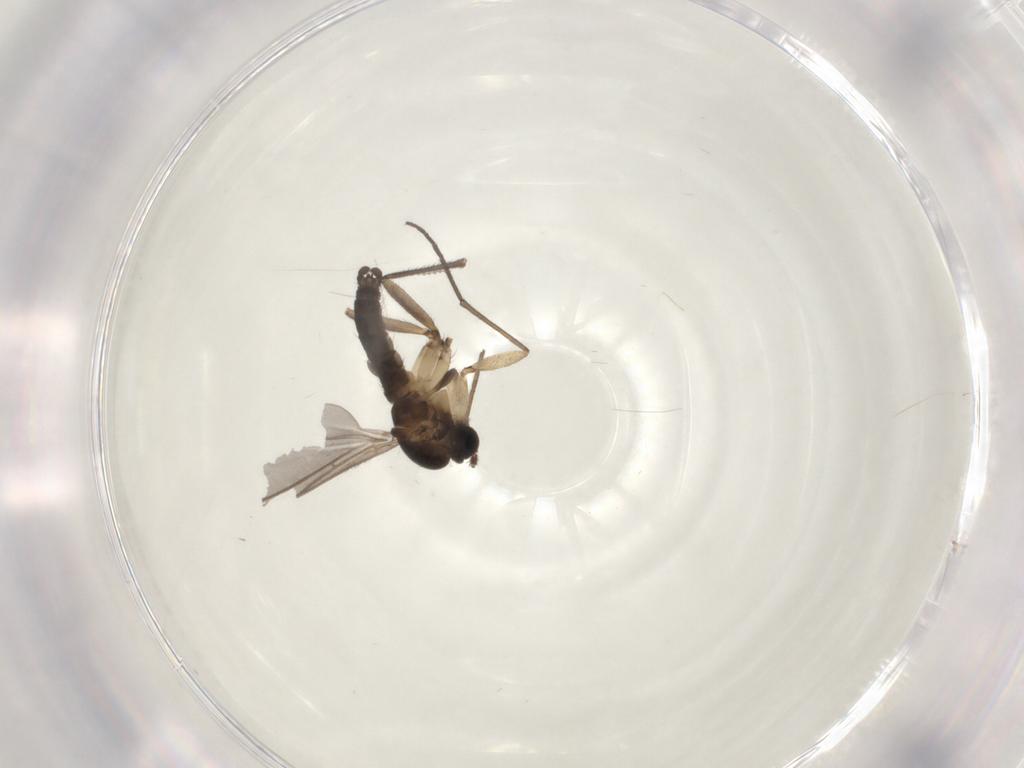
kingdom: Animalia
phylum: Arthropoda
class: Insecta
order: Diptera
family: Sciaridae
